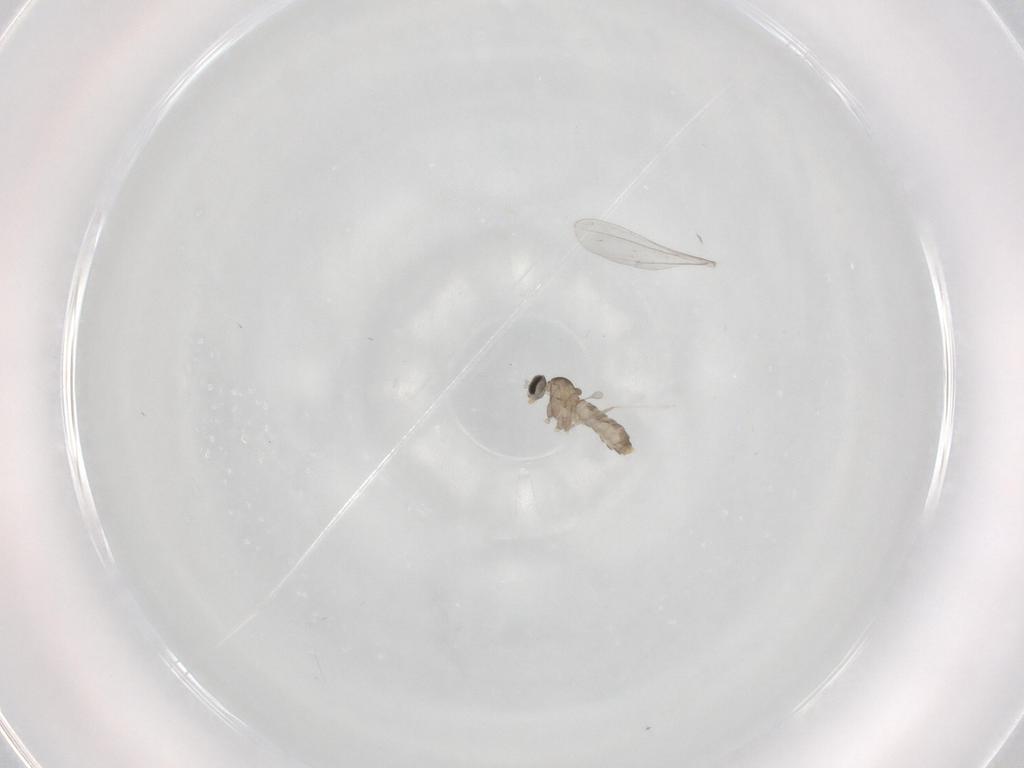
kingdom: Animalia
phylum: Arthropoda
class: Insecta
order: Diptera
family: Cecidomyiidae
